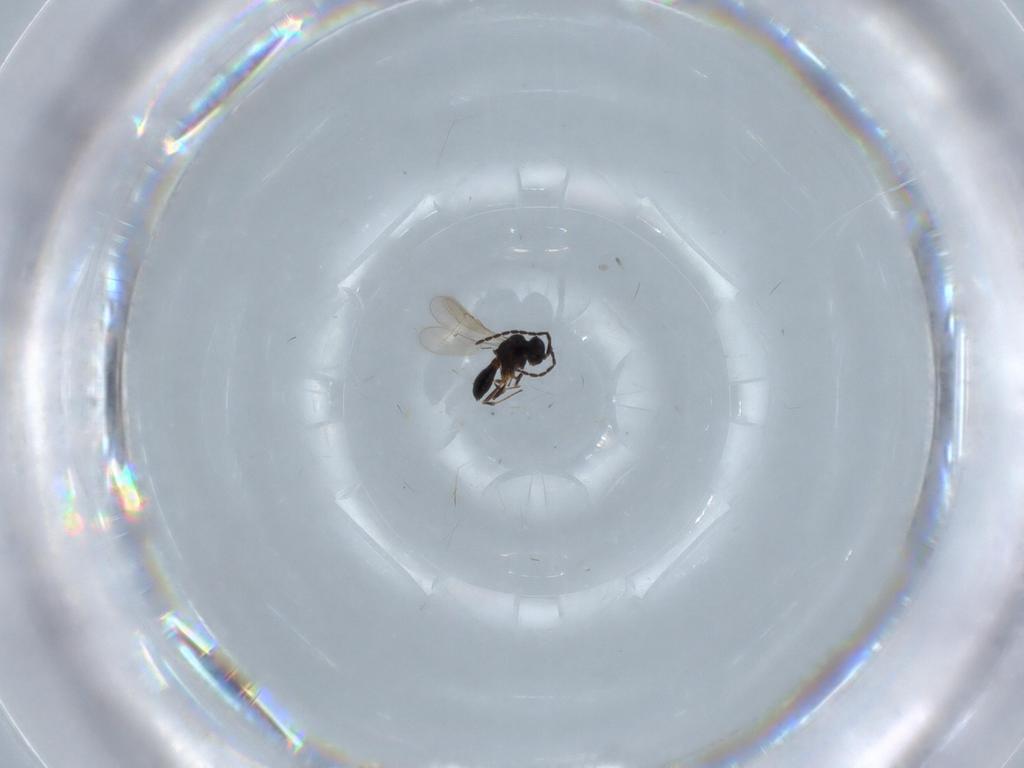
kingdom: Animalia
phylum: Arthropoda
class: Insecta
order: Hymenoptera
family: Scelionidae
